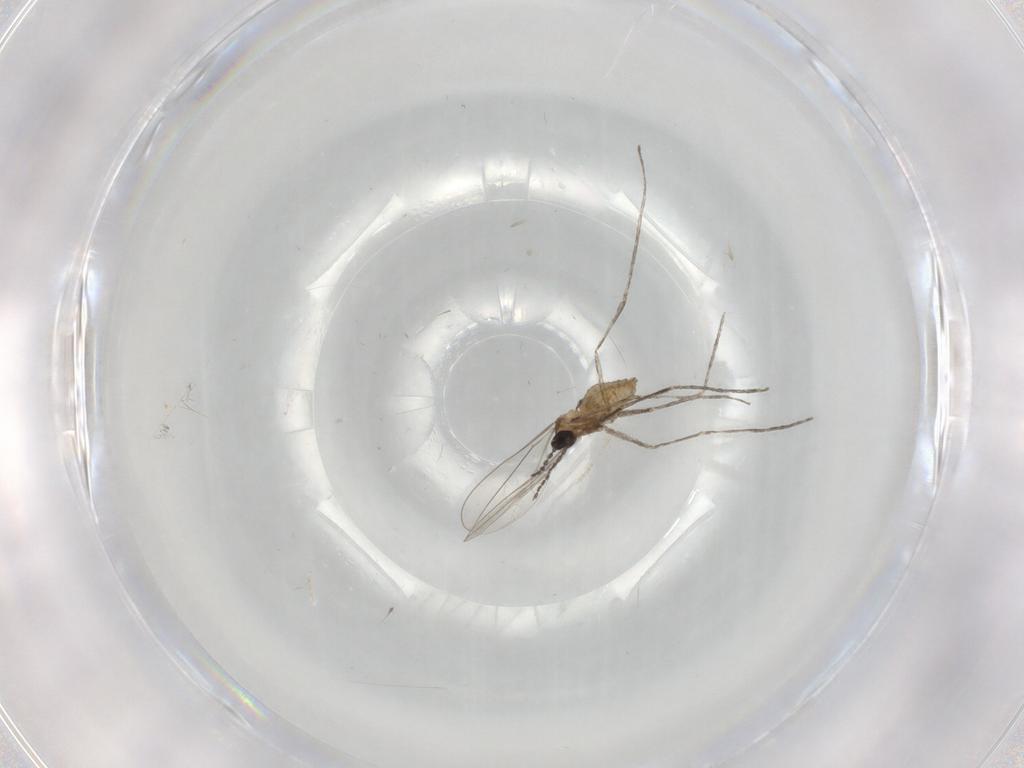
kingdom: Animalia
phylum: Arthropoda
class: Insecta
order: Diptera
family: Cecidomyiidae
